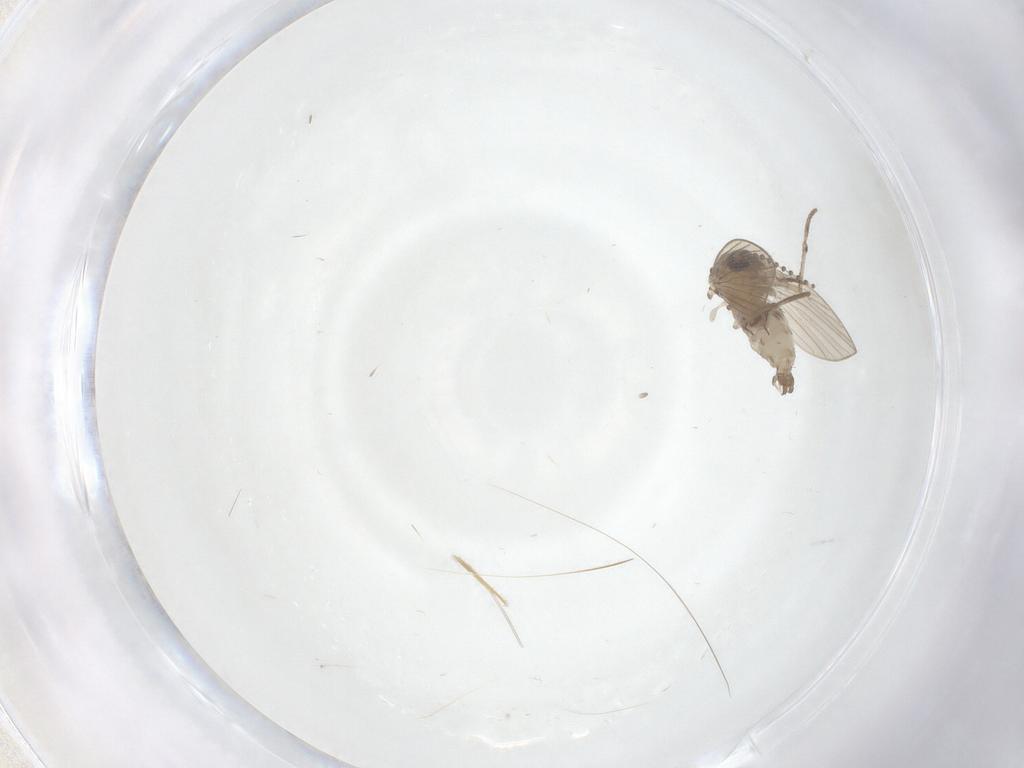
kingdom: Animalia
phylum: Arthropoda
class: Insecta
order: Diptera
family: Psychodidae
